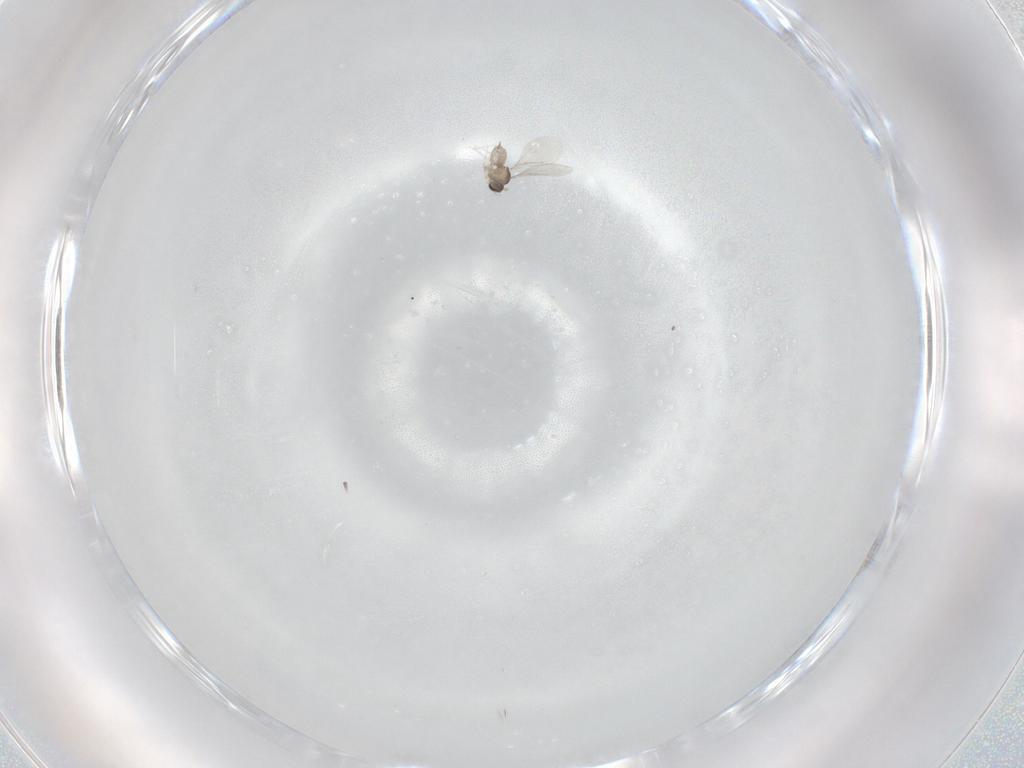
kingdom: Animalia
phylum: Arthropoda
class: Insecta
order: Diptera
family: Cecidomyiidae
